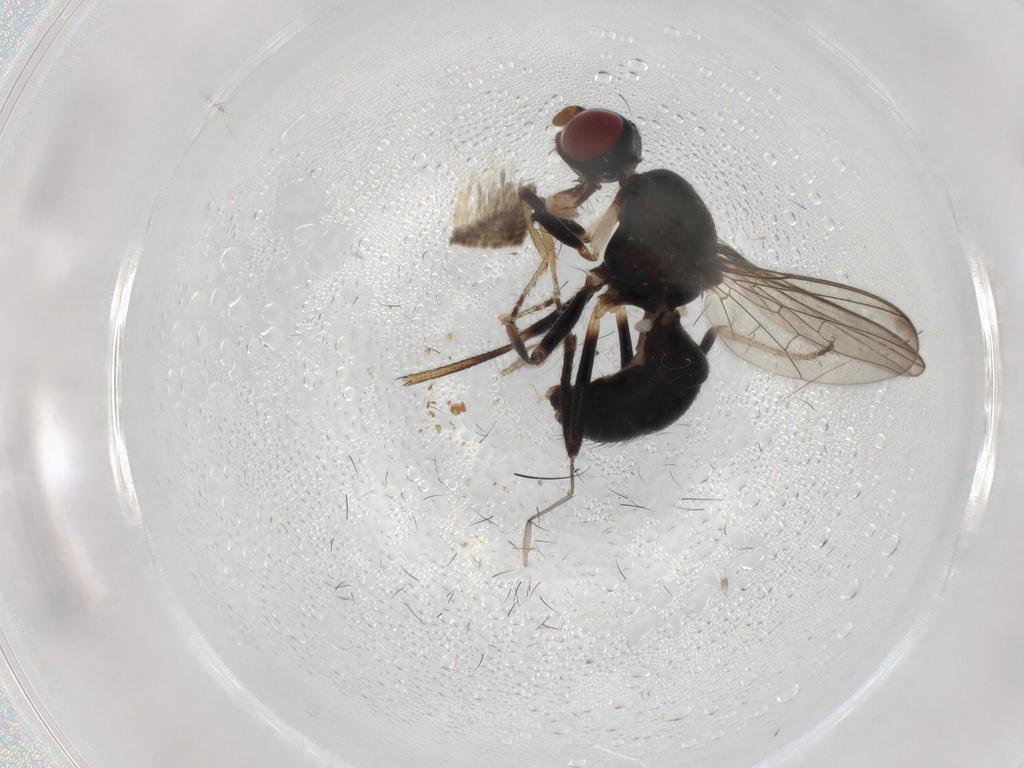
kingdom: Animalia
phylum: Arthropoda
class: Insecta
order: Diptera
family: Sepsidae
